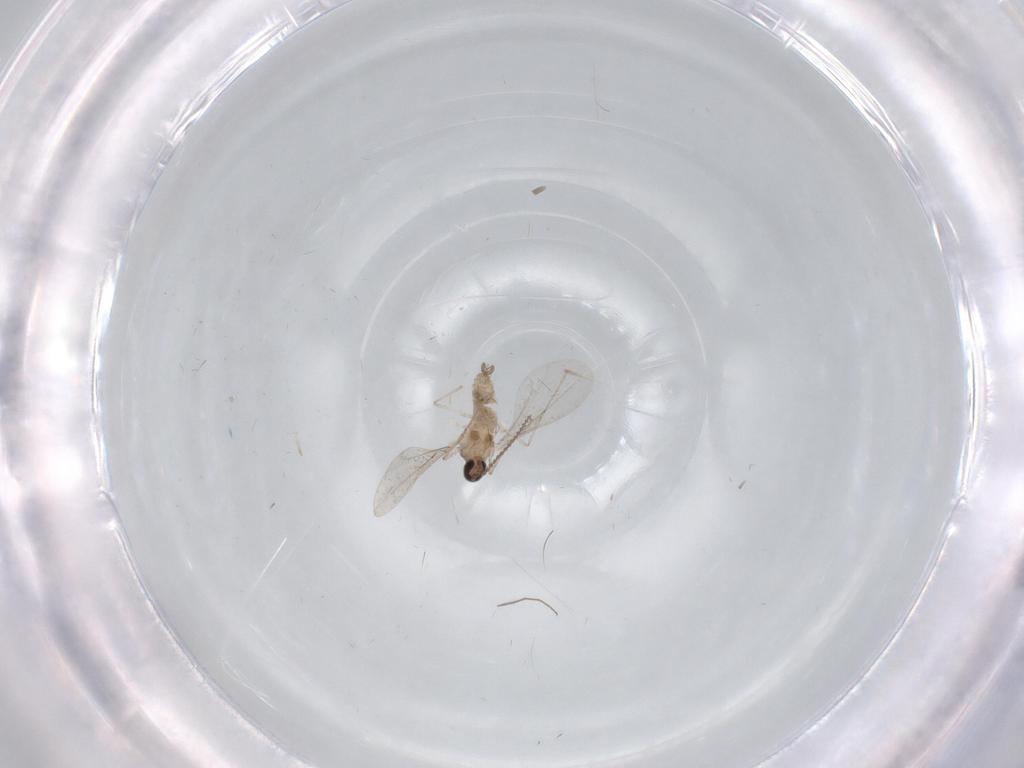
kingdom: Animalia
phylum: Arthropoda
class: Insecta
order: Diptera
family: Cecidomyiidae
